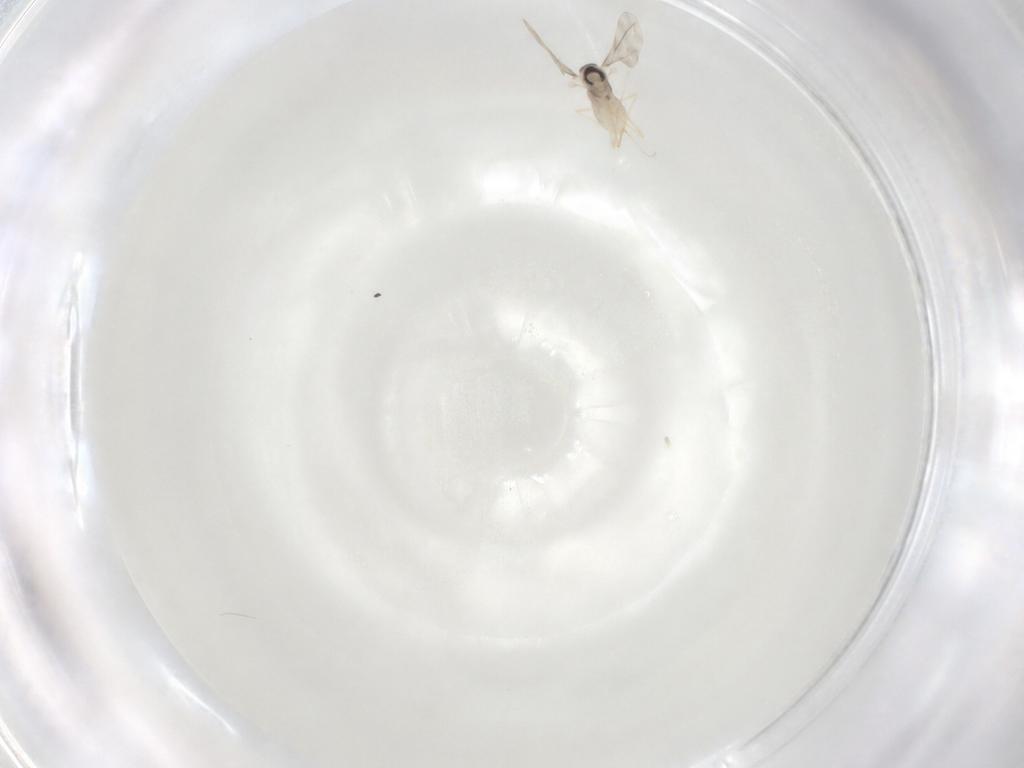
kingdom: Animalia
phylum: Arthropoda
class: Insecta
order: Diptera
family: Cecidomyiidae
